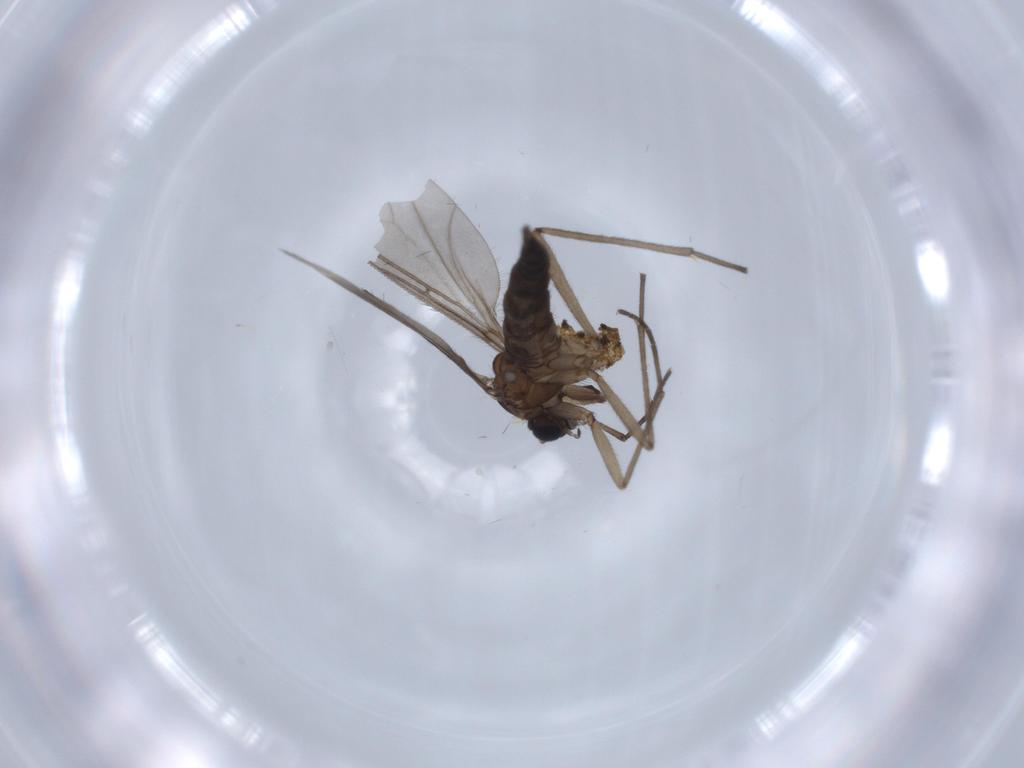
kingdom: Animalia
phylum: Arthropoda
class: Insecta
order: Diptera
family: Sciaridae
